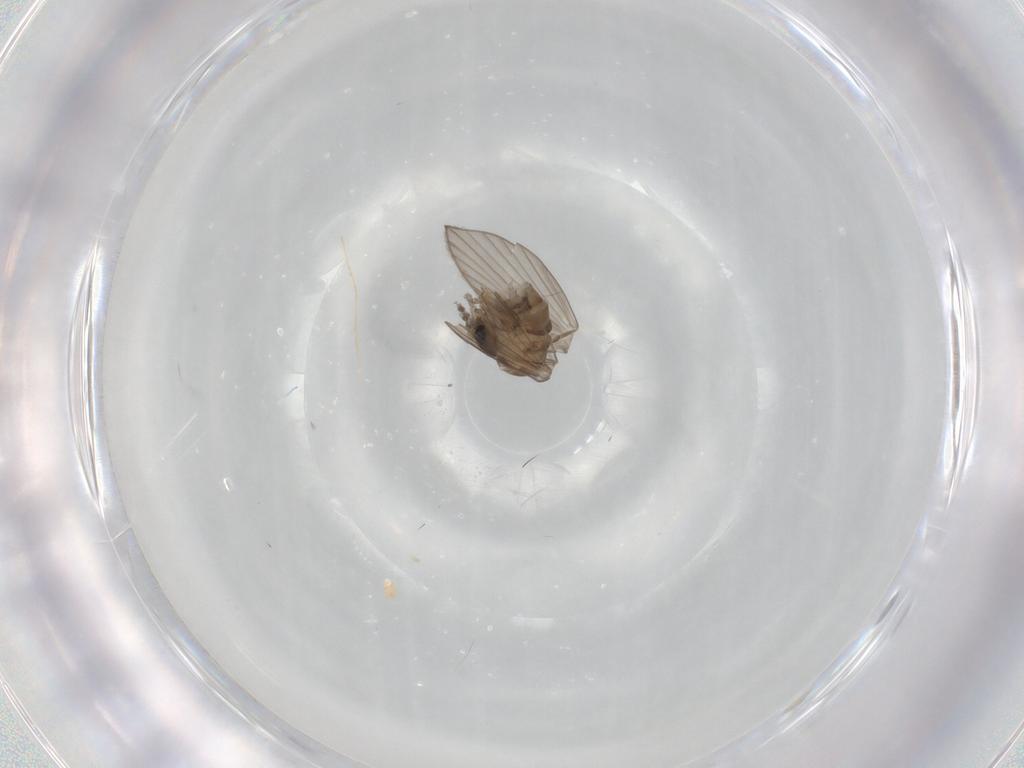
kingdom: Animalia
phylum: Arthropoda
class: Insecta
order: Diptera
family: Psychodidae
